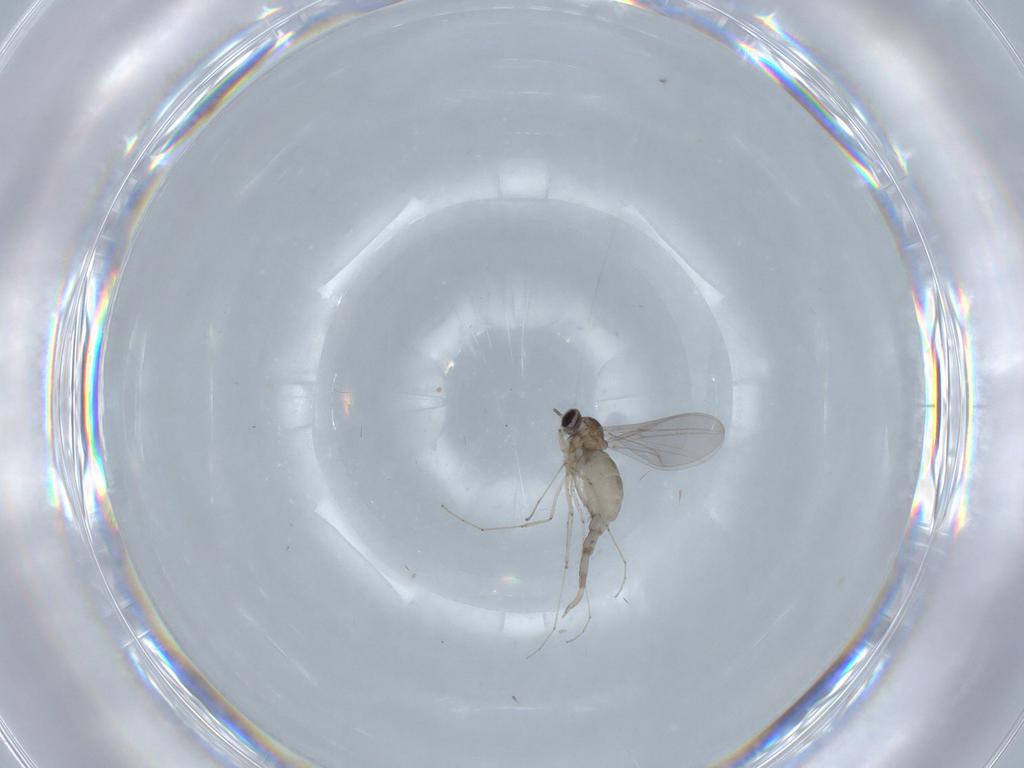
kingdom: Animalia
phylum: Arthropoda
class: Insecta
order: Diptera
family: Cecidomyiidae
